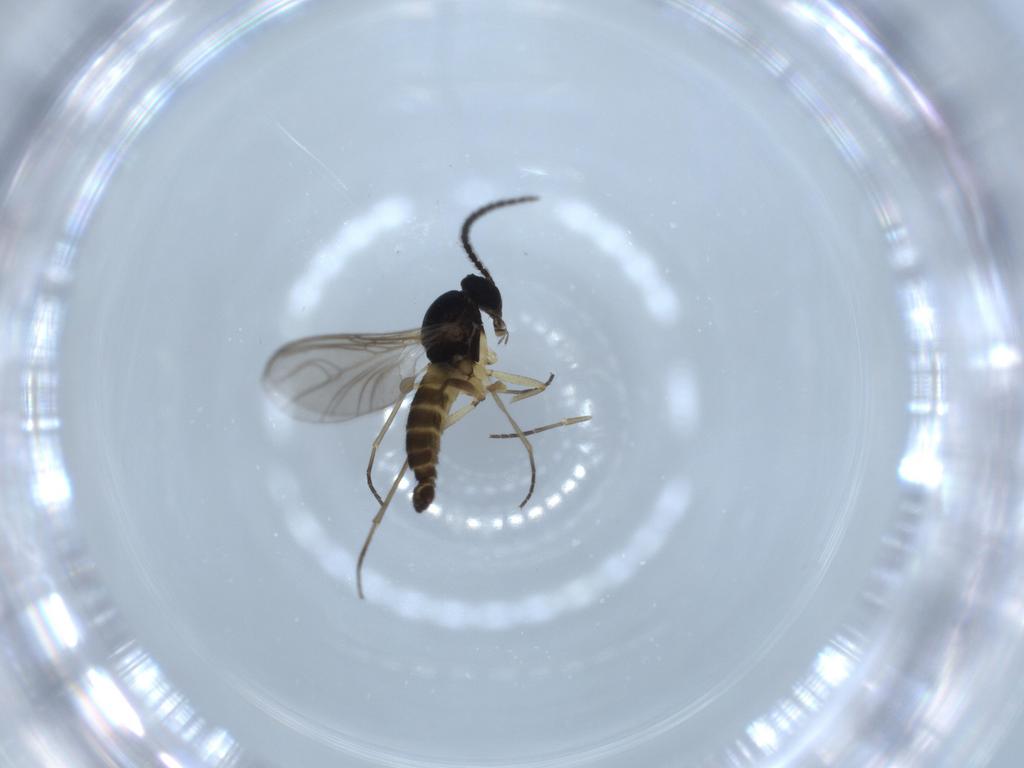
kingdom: Animalia
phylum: Arthropoda
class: Insecta
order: Diptera
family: Sciaridae
